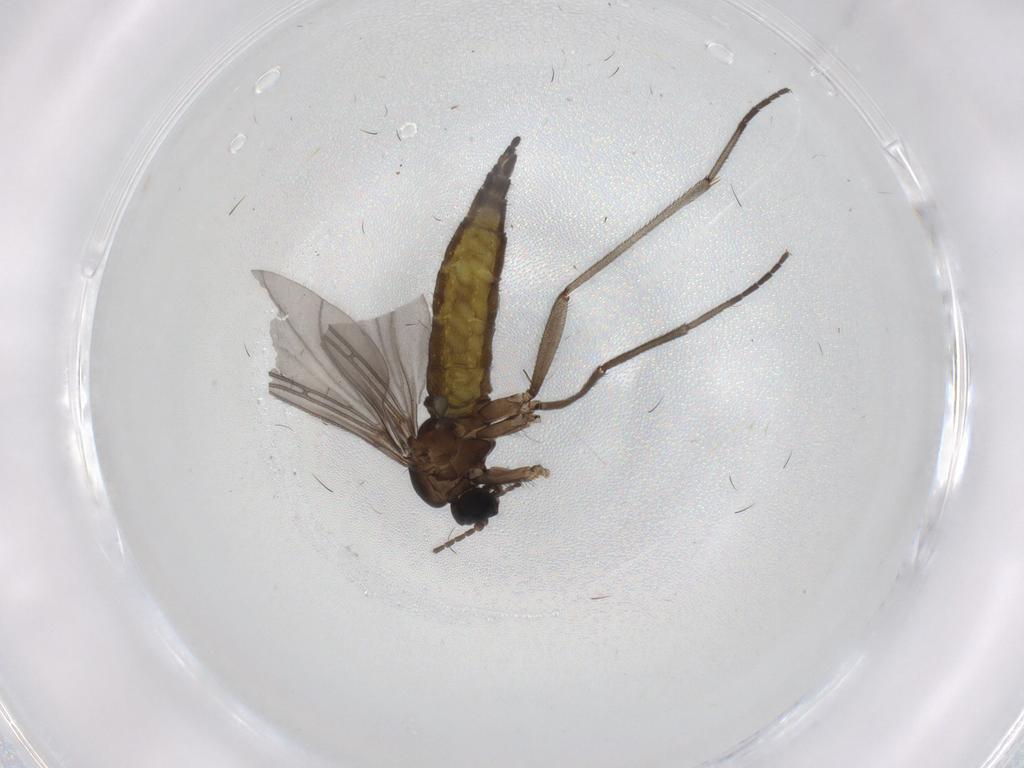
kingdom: Animalia
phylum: Arthropoda
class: Insecta
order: Diptera
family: Sciaridae
